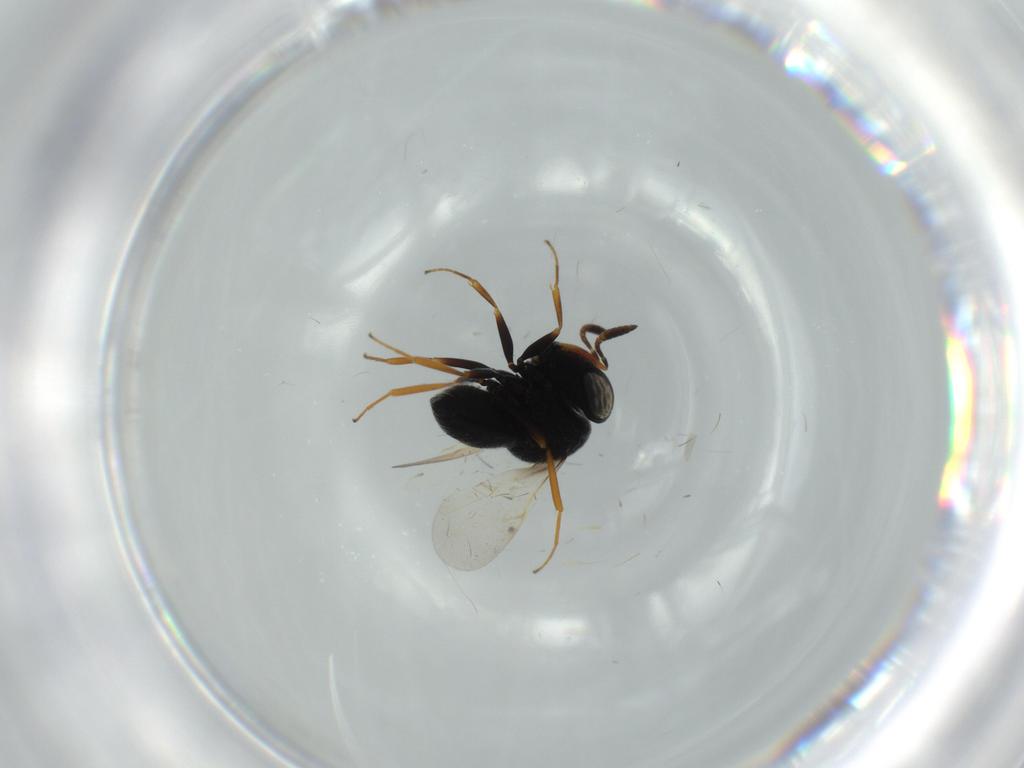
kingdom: Animalia
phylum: Arthropoda
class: Insecta
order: Hymenoptera
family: Scelionidae
